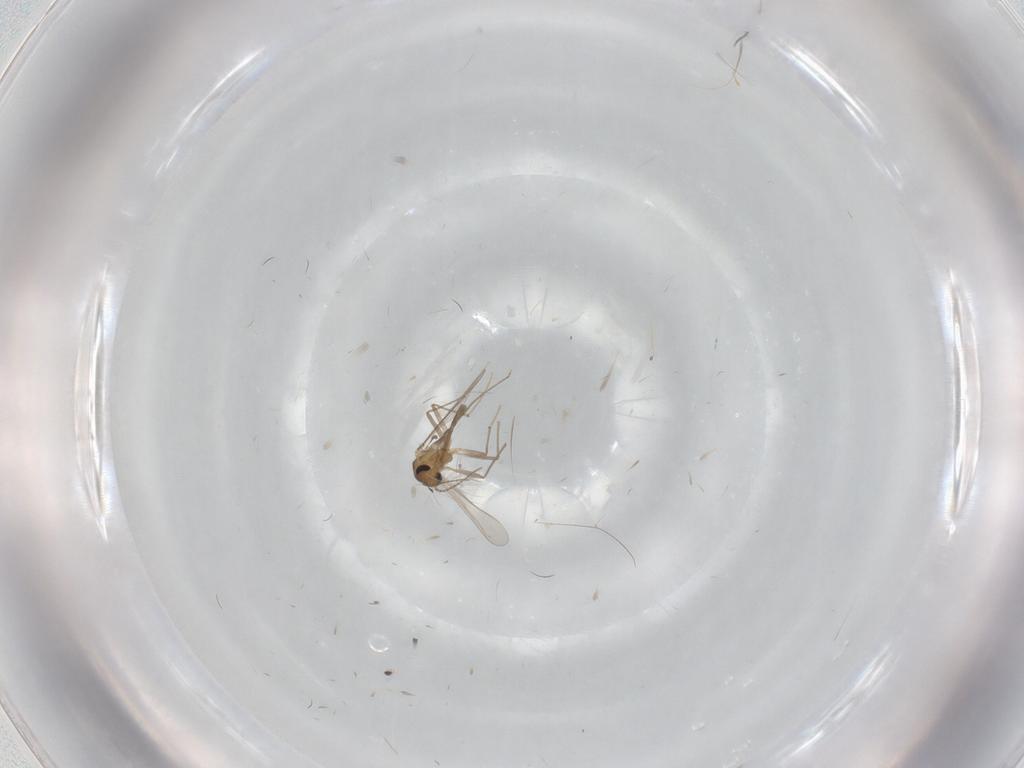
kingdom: Animalia
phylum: Arthropoda
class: Insecta
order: Diptera
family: Chironomidae
